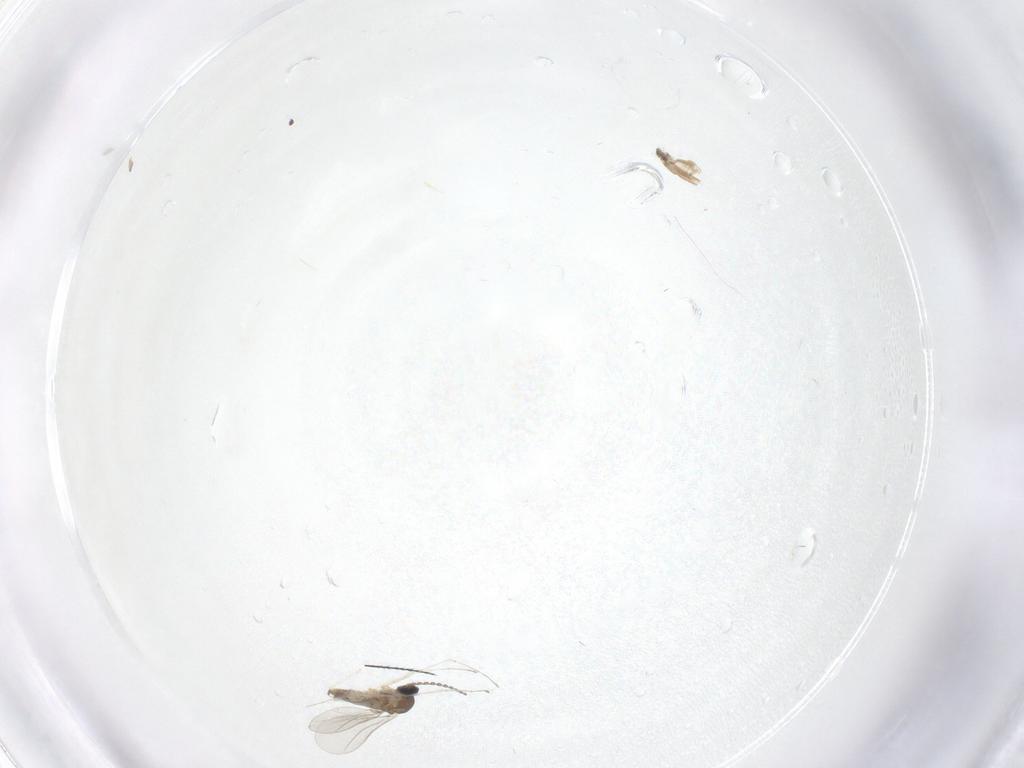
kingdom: Animalia
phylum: Arthropoda
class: Insecta
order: Diptera
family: Cecidomyiidae
